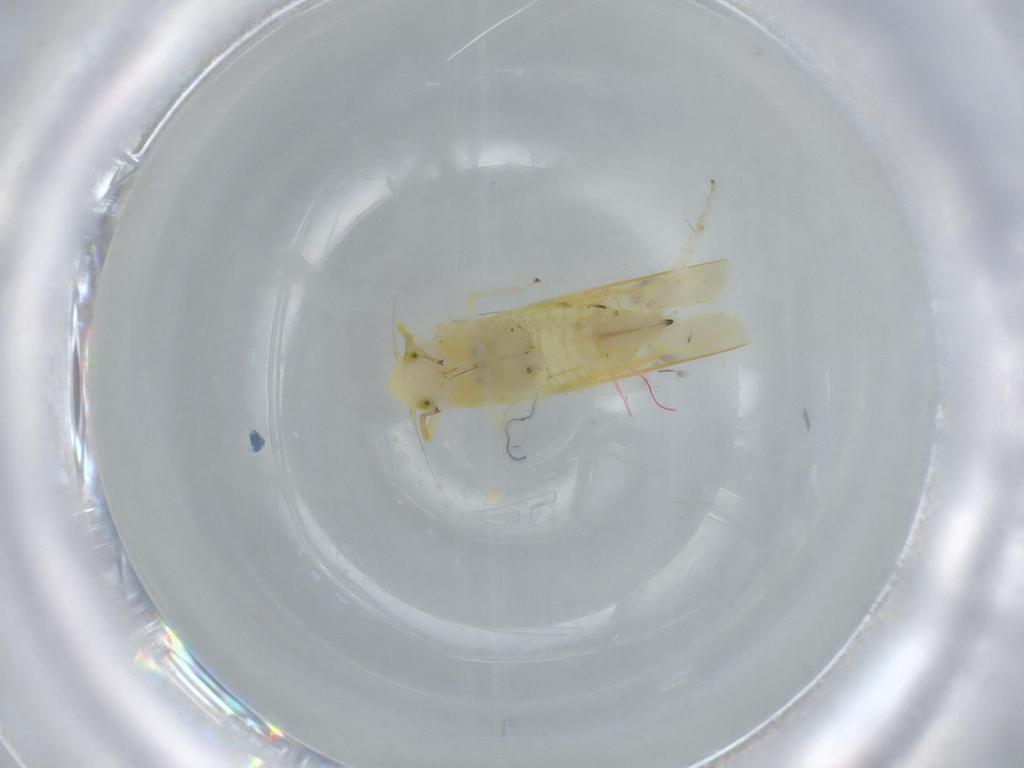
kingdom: Animalia
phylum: Arthropoda
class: Insecta
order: Hemiptera
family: Cicadellidae
